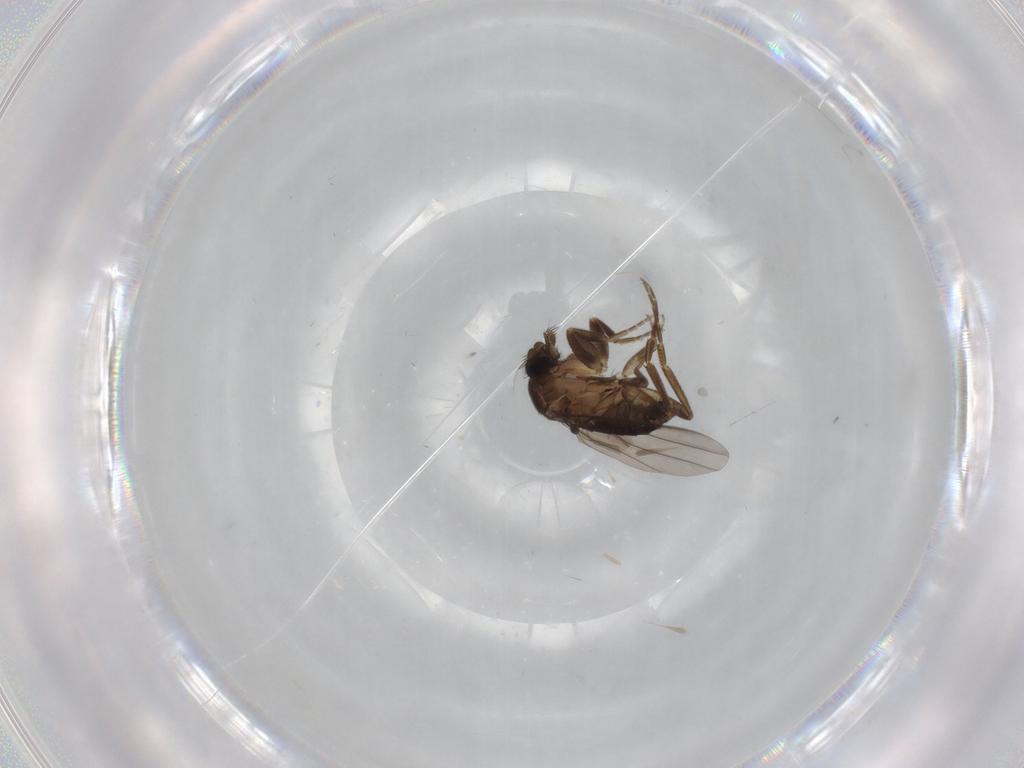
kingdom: Animalia
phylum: Arthropoda
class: Insecta
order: Diptera
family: Phoridae
